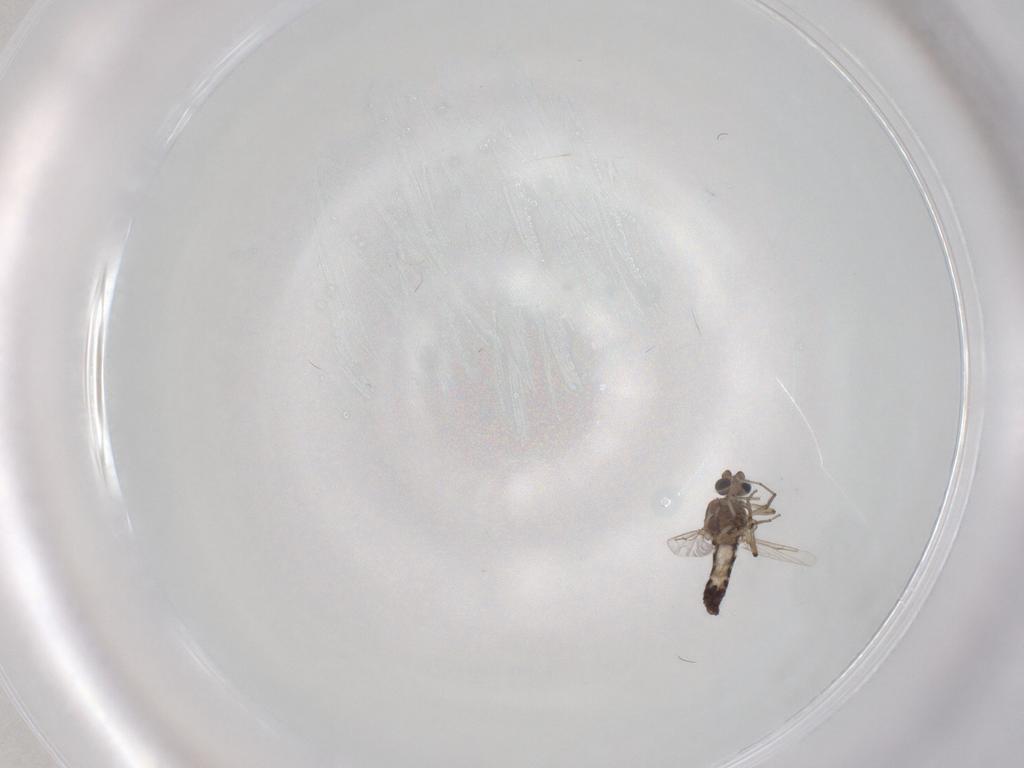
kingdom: Animalia
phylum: Arthropoda
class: Insecta
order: Diptera
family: Ceratopogonidae
